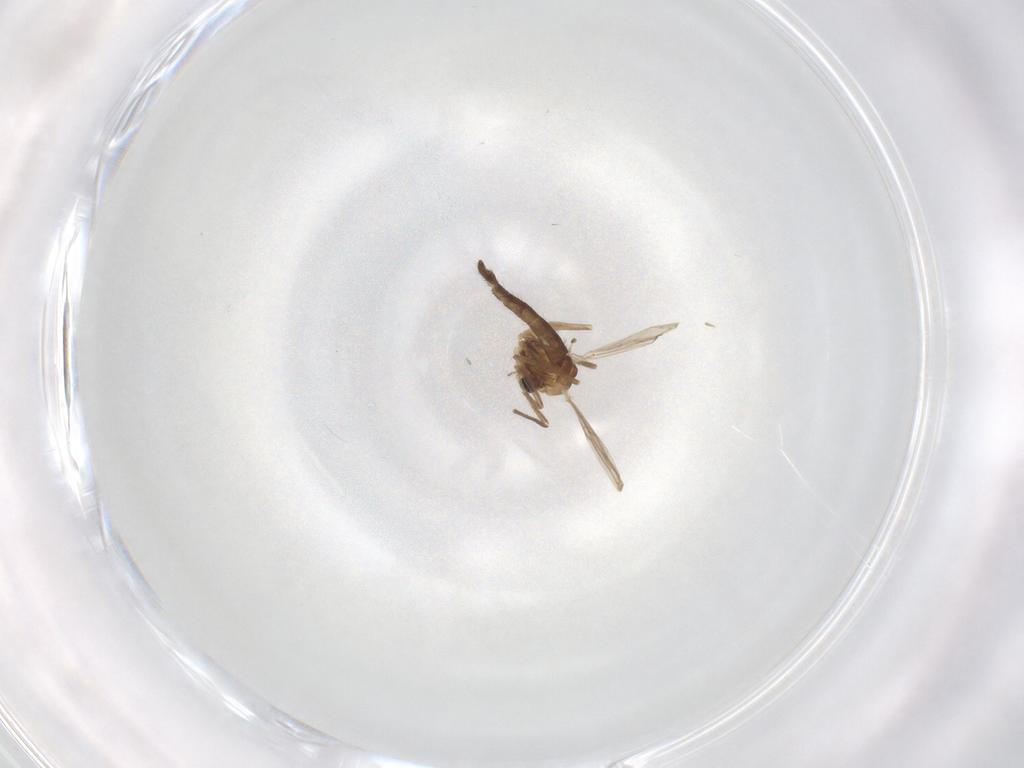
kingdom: Animalia
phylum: Arthropoda
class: Insecta
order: Diptera
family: Chironomidae
